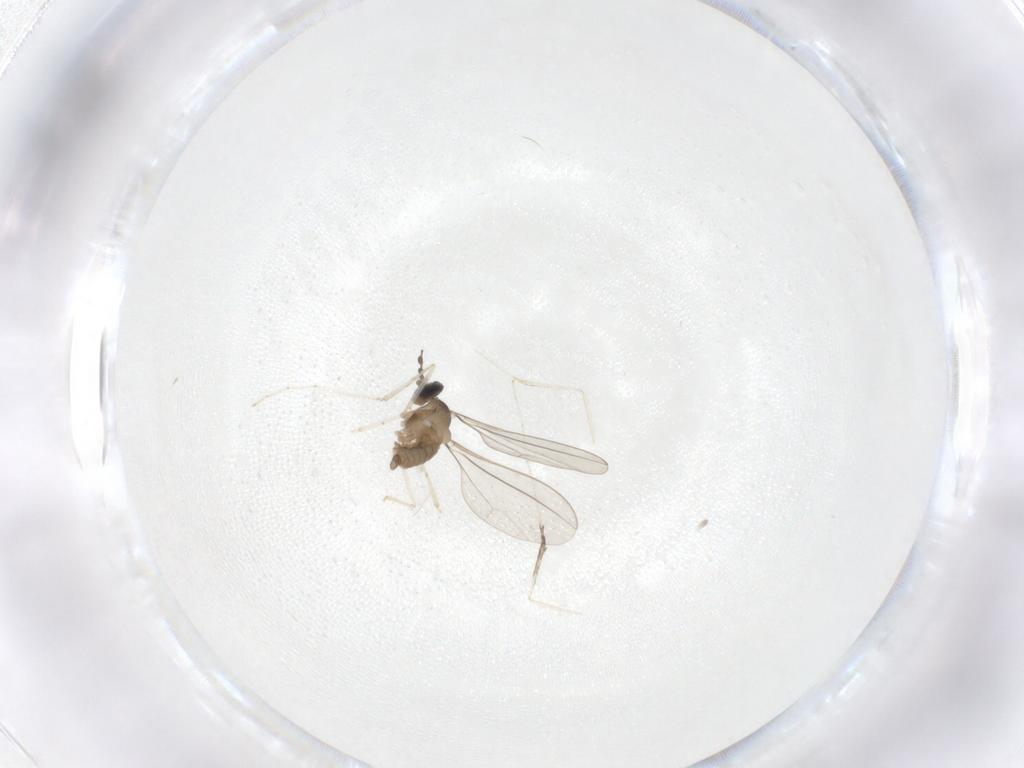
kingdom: Animalia
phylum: Arthropoda
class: Insecta
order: Diptera
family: Cecidomyiidae
